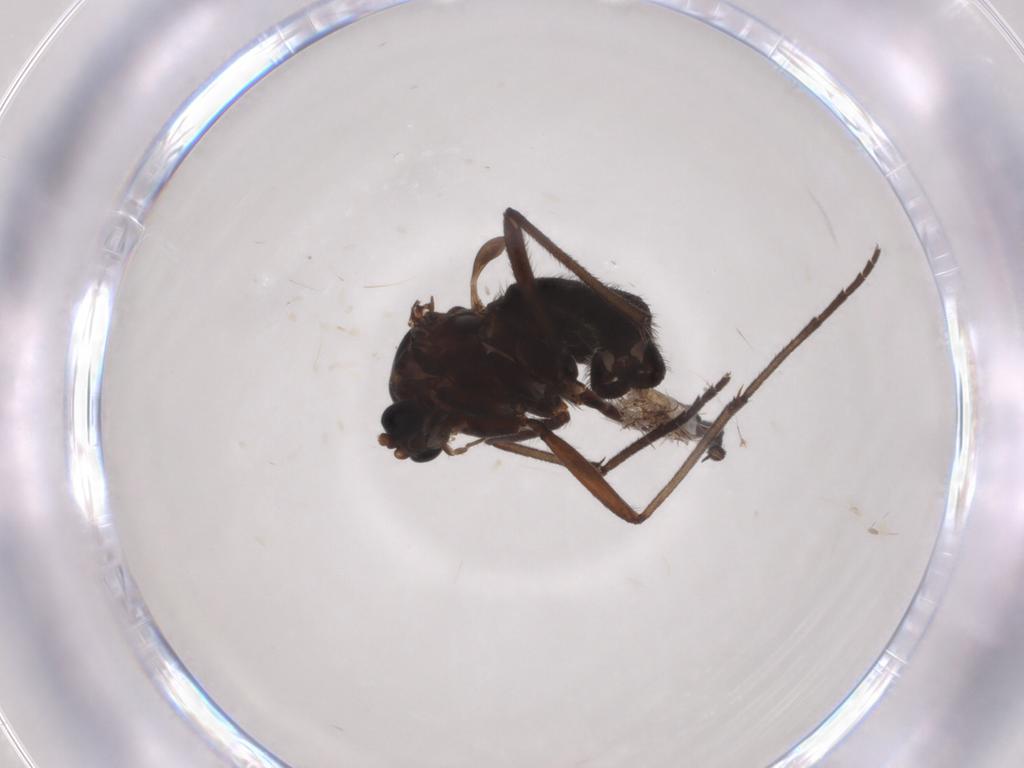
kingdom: Animalia
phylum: Arthropoda
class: Insecta
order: Diptera
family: Sciaridae
